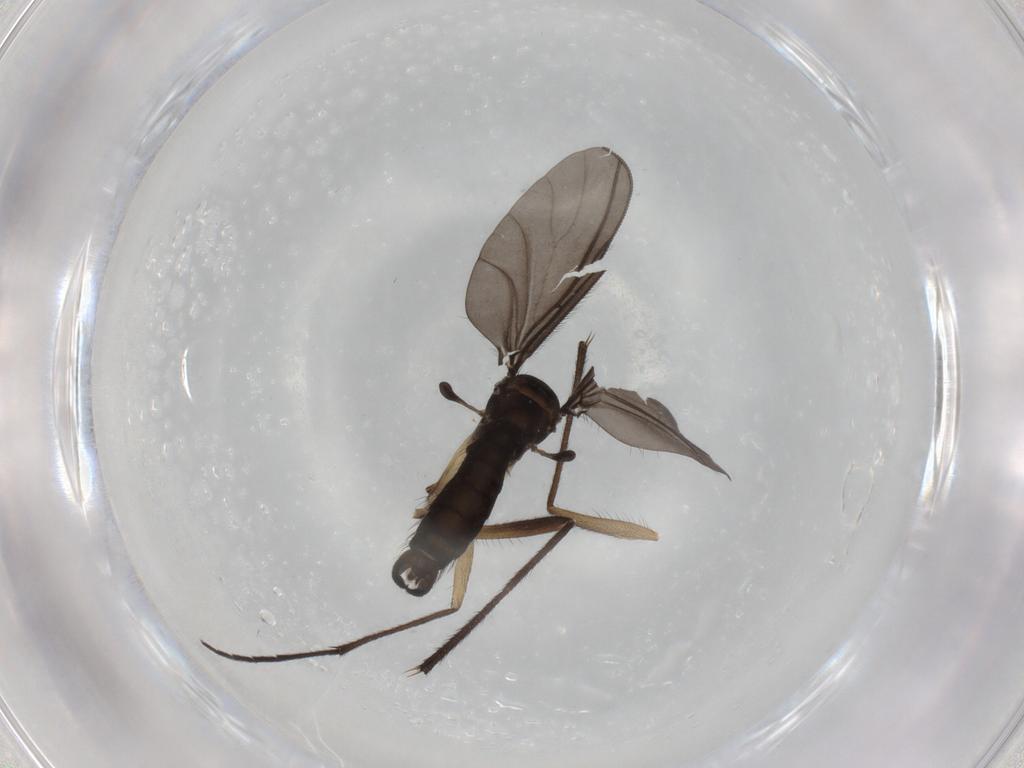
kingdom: Animalia
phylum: Arthropoda
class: Insecta
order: Diptera
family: Sciaridae
